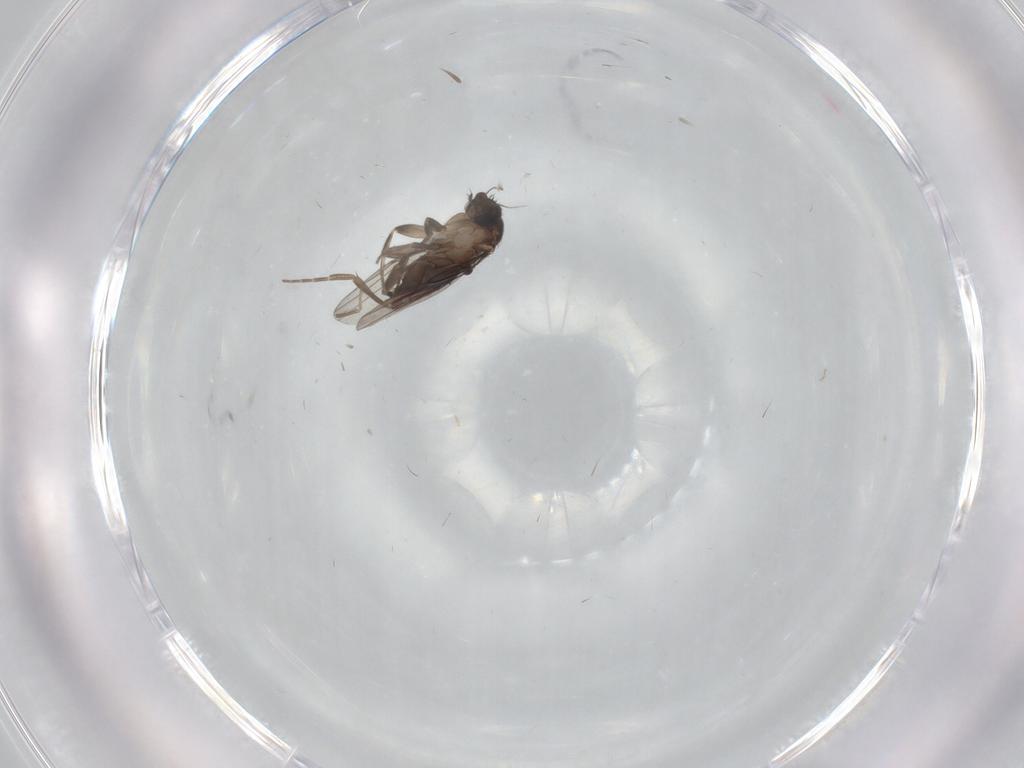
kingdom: Animalia
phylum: Arthropoda
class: Insecta
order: Diptera
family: Chironomidae
